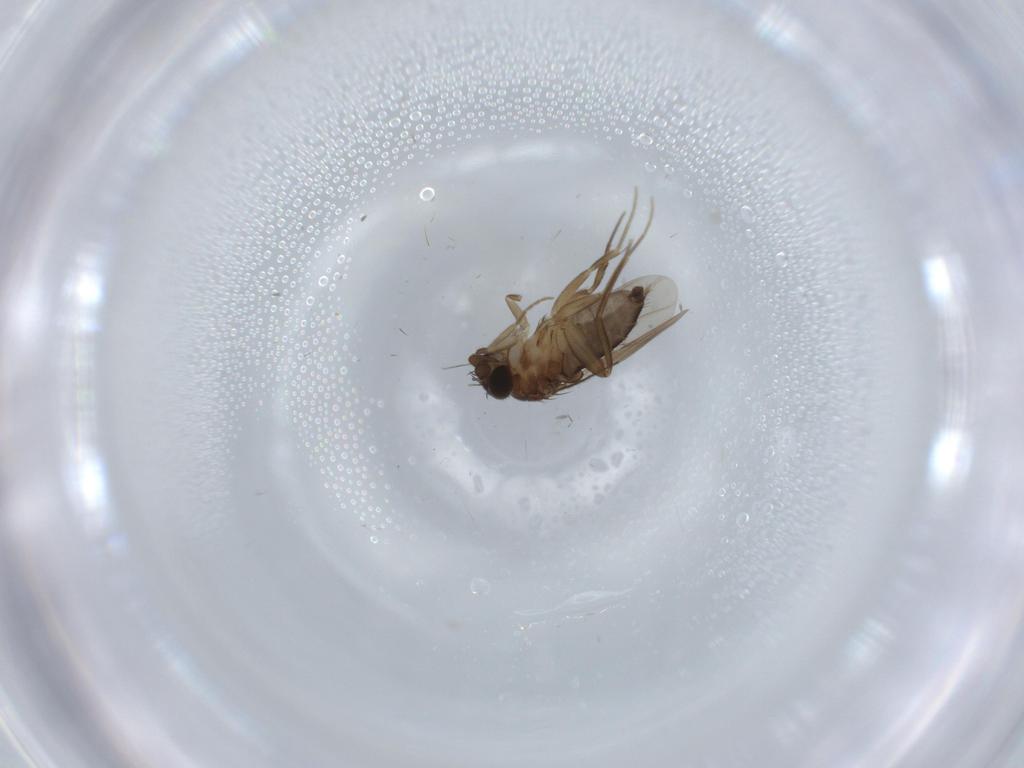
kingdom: Animalia
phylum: Arthropoda
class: Insecta
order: Diptera
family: Phoridae
